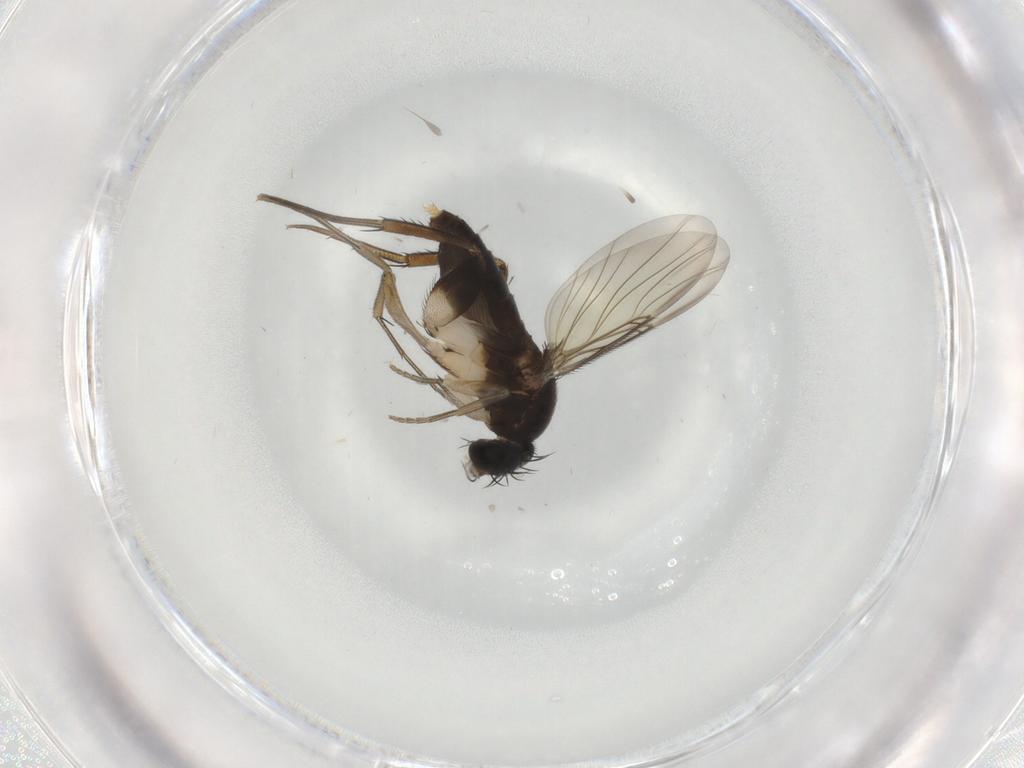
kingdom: Animalia
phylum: Arthropoda
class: Insecta
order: Diptera
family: Phoridae
